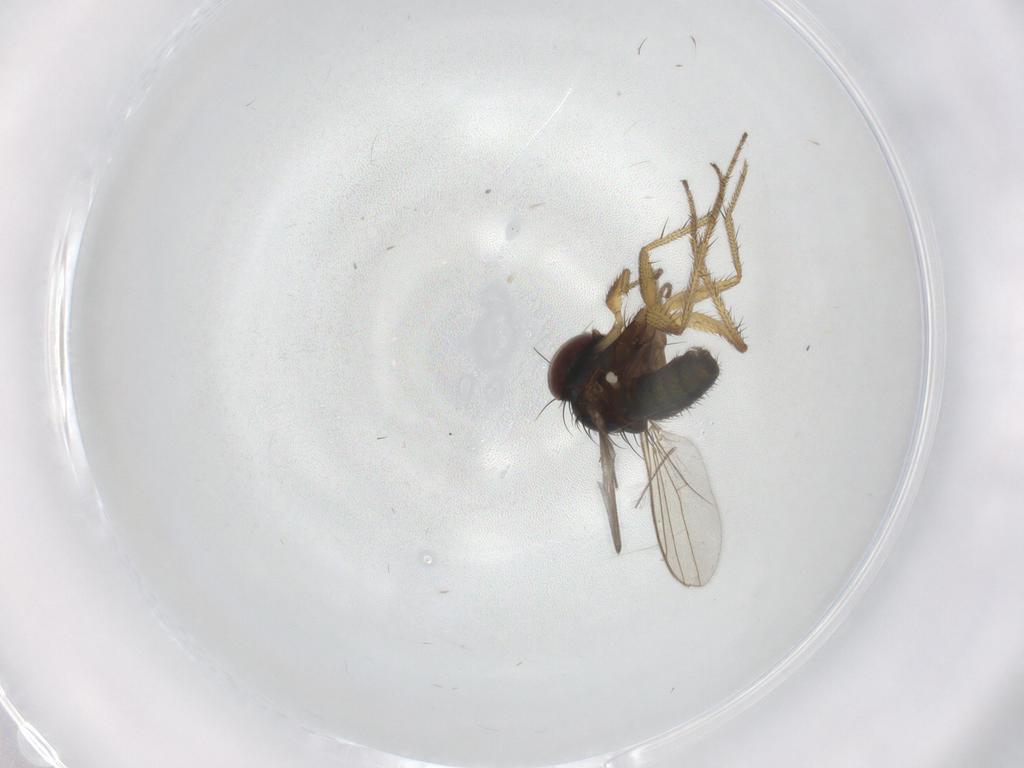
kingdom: Animalia
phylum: Arthropoda
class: Insecta
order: Diptera
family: Dolichopodidae
